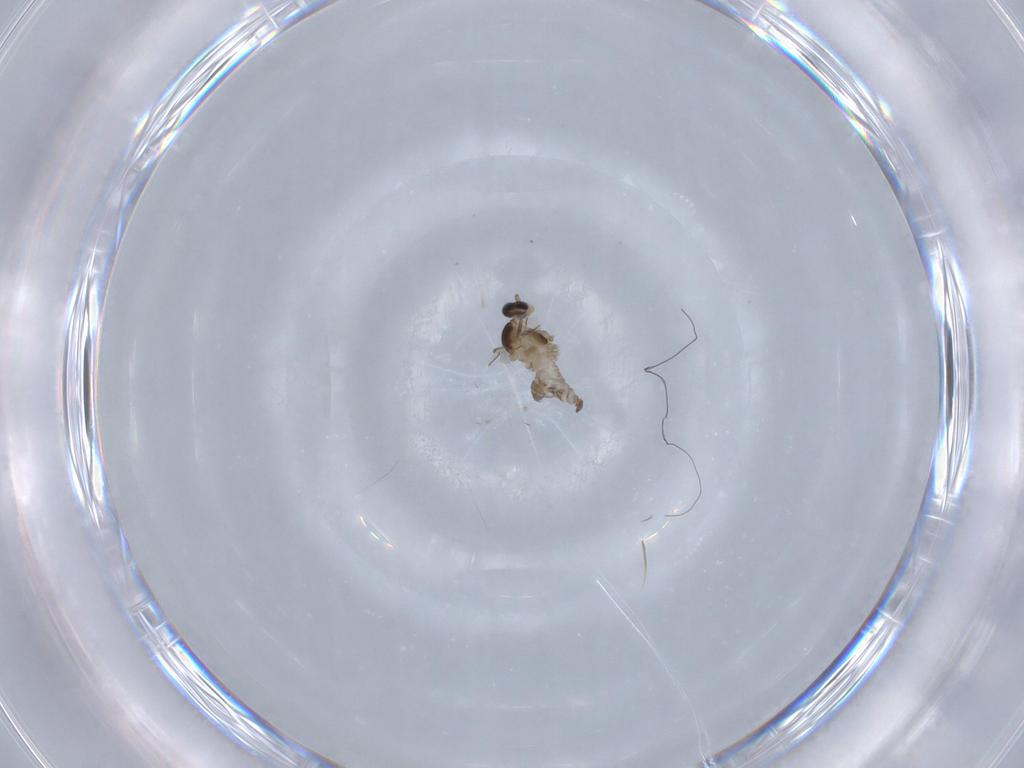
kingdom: Animalia
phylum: Arthropoda
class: Insecta
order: Diptera
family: Cecidomyiidae
